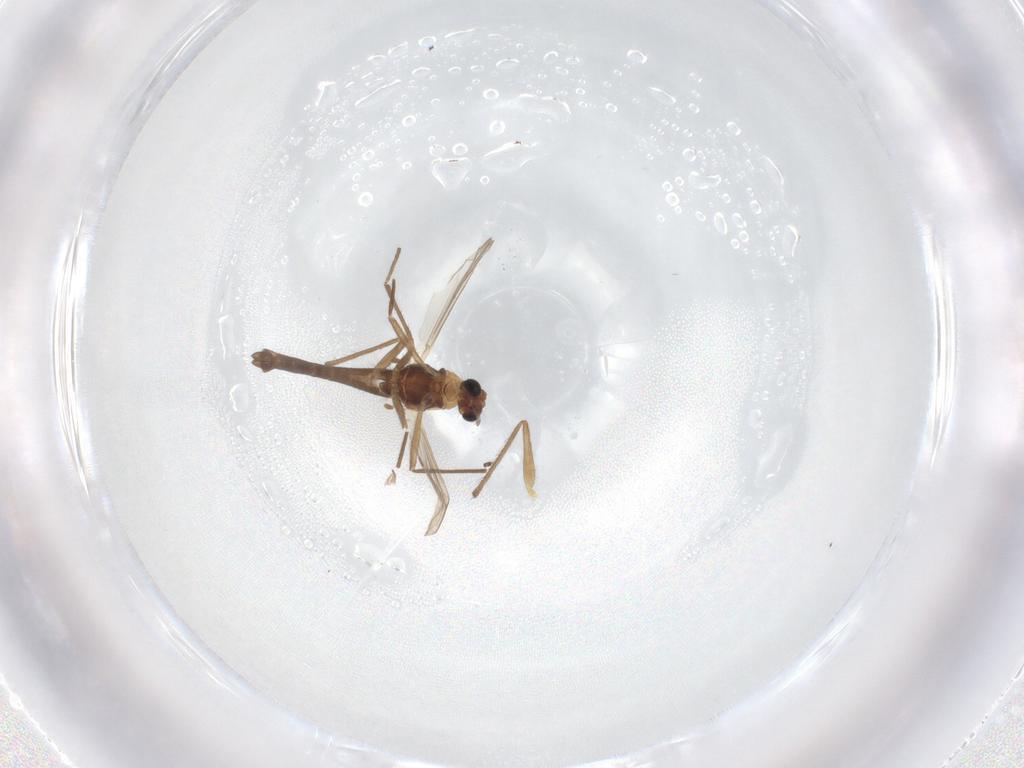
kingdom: Animalia
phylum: Arthropoda
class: Insecta
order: Diptera
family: Chironomidae
